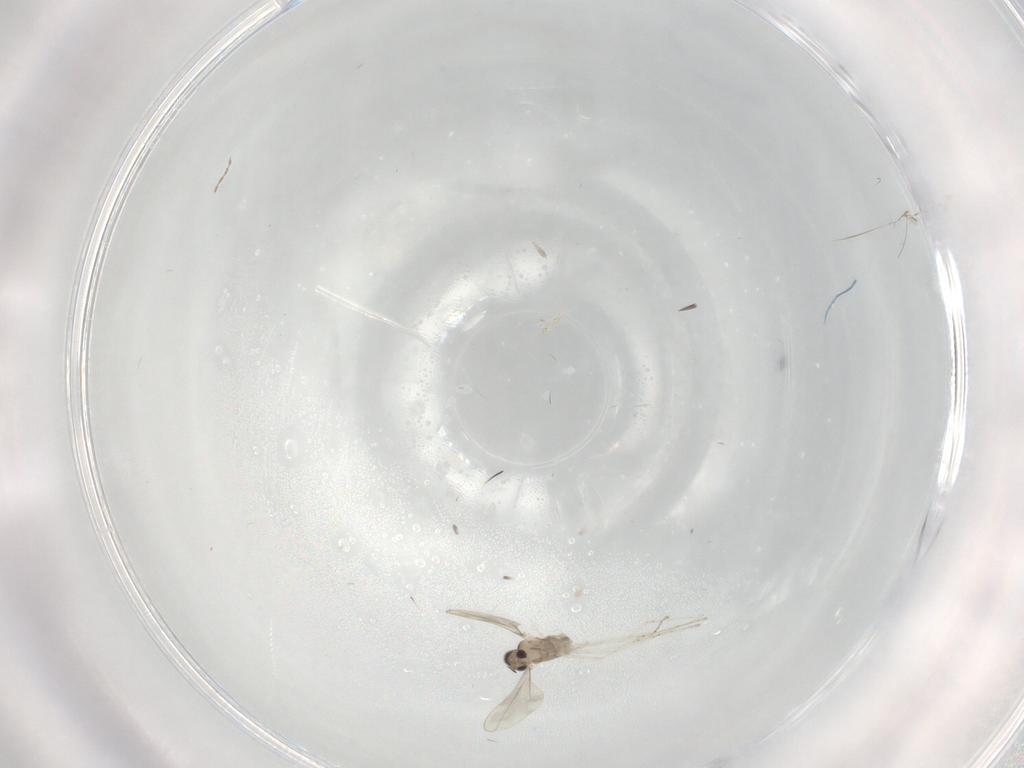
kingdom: Animalia
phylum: Arthropoda
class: Insecta
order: Diptera
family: Cecidomyiidae
